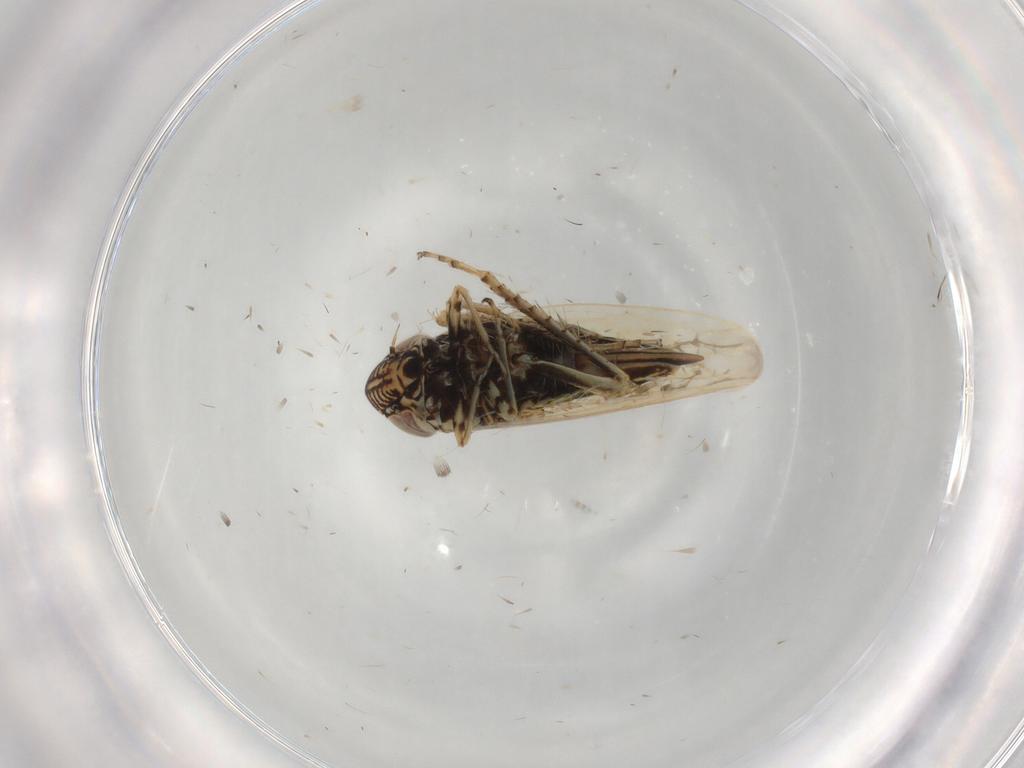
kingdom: Animalia
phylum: Arthropoda
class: Insecta
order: Hemiptera
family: Cicadellidae
